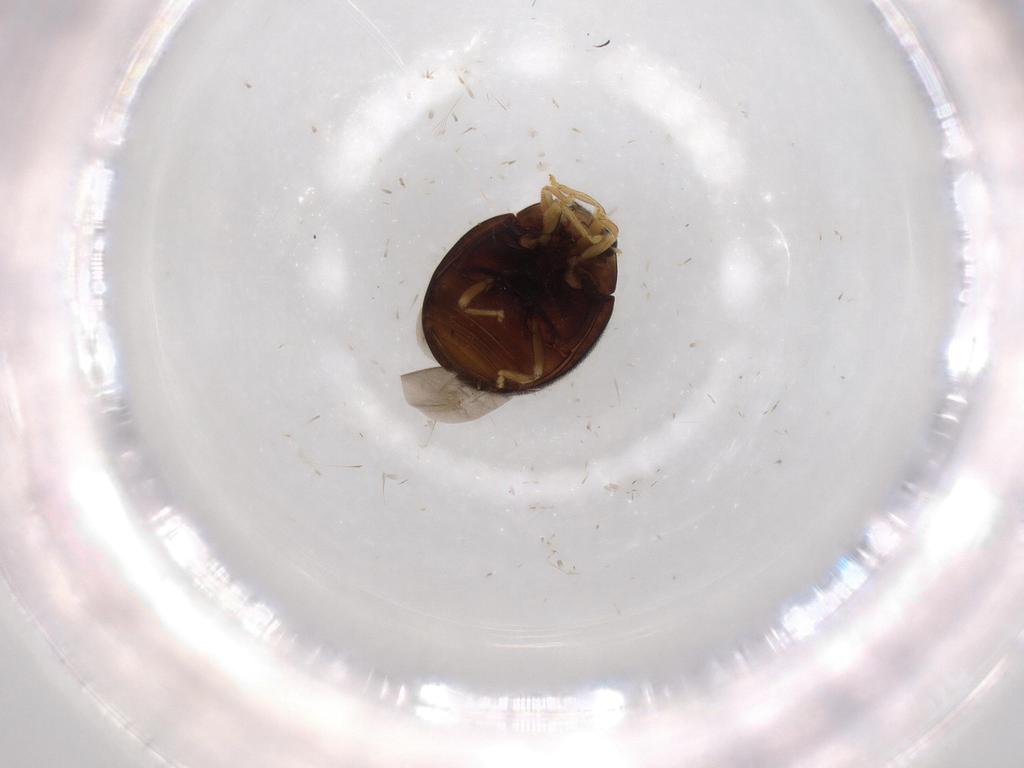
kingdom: Animalia
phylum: Arthropoda
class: Insecta
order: Coleoptera
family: Coccinellidae
